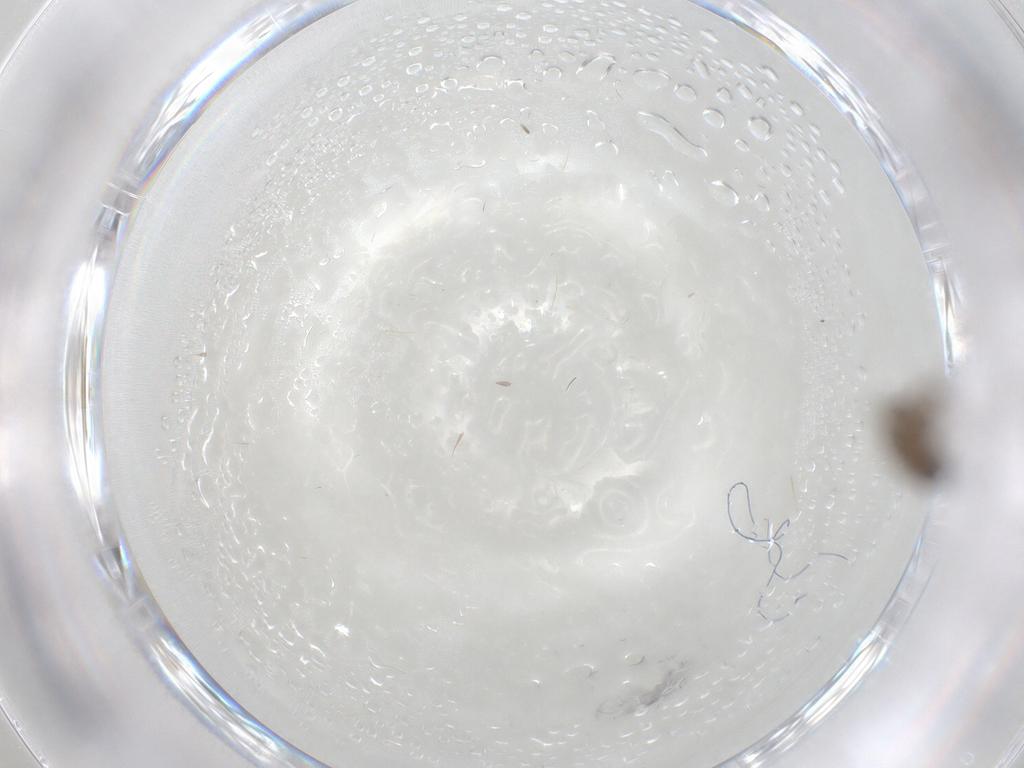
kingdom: Animalia
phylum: Arthropoda
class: Insecta
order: Diptera
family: Ceratopogonidae
